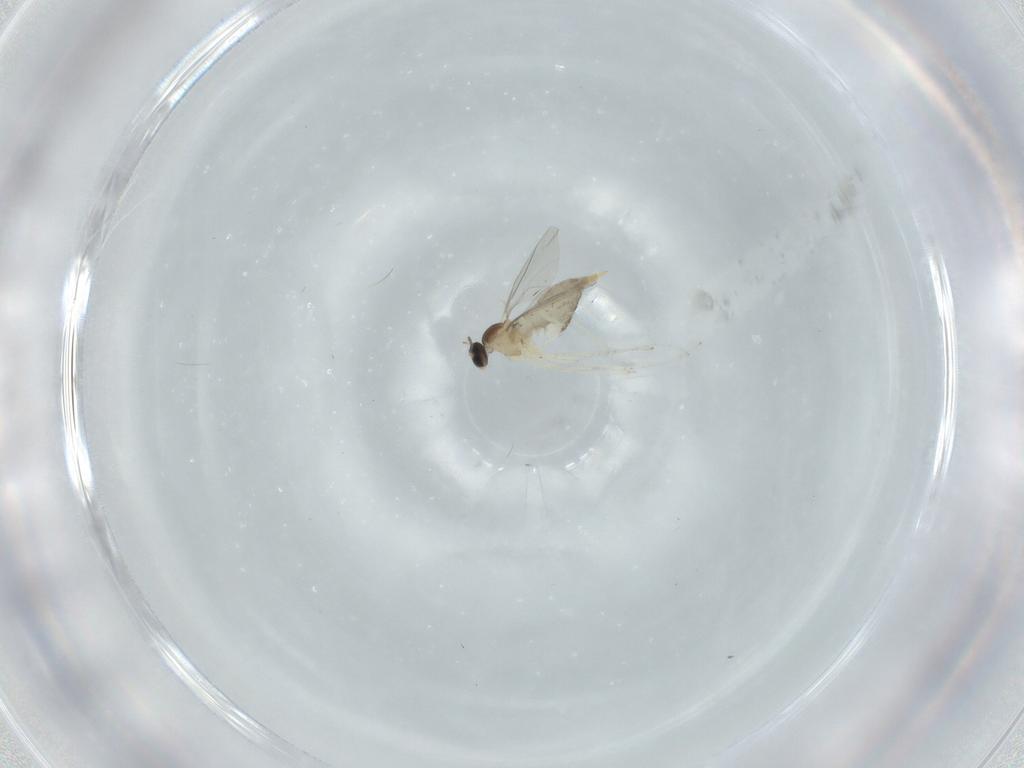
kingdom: Animalia
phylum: Arthropoda
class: Insecta
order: Diptera
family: Cecidomyiidae
